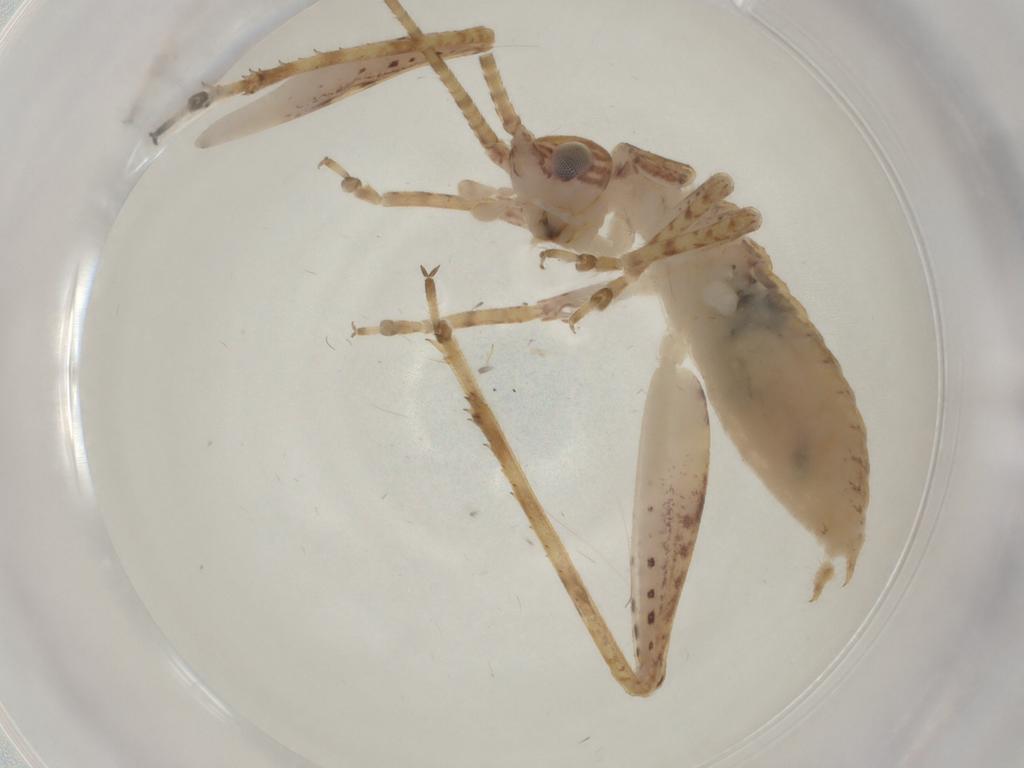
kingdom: Animalia
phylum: Arthropoda
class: Insecta
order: Orthoptera
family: Gryllidae
